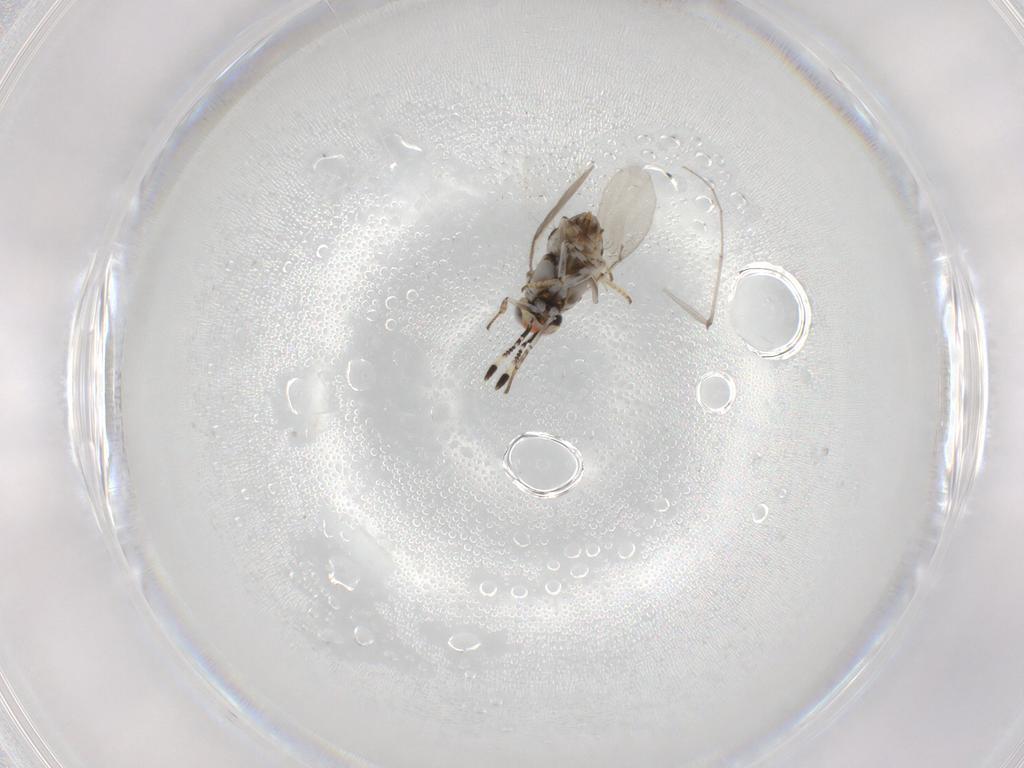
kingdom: Animalia
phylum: Arthropoda
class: Insecta
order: Hymenoptera
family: Encyrtidae
